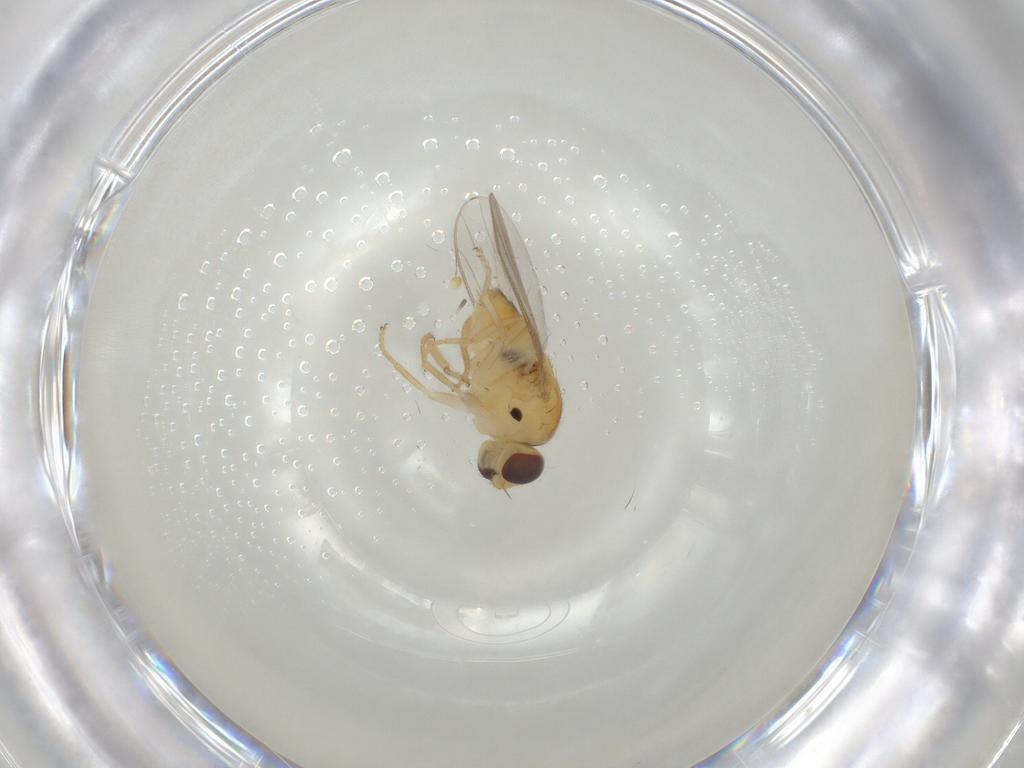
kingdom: Animalia
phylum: Arthropoda
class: Insecta
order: Diptera
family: Chloropidae
